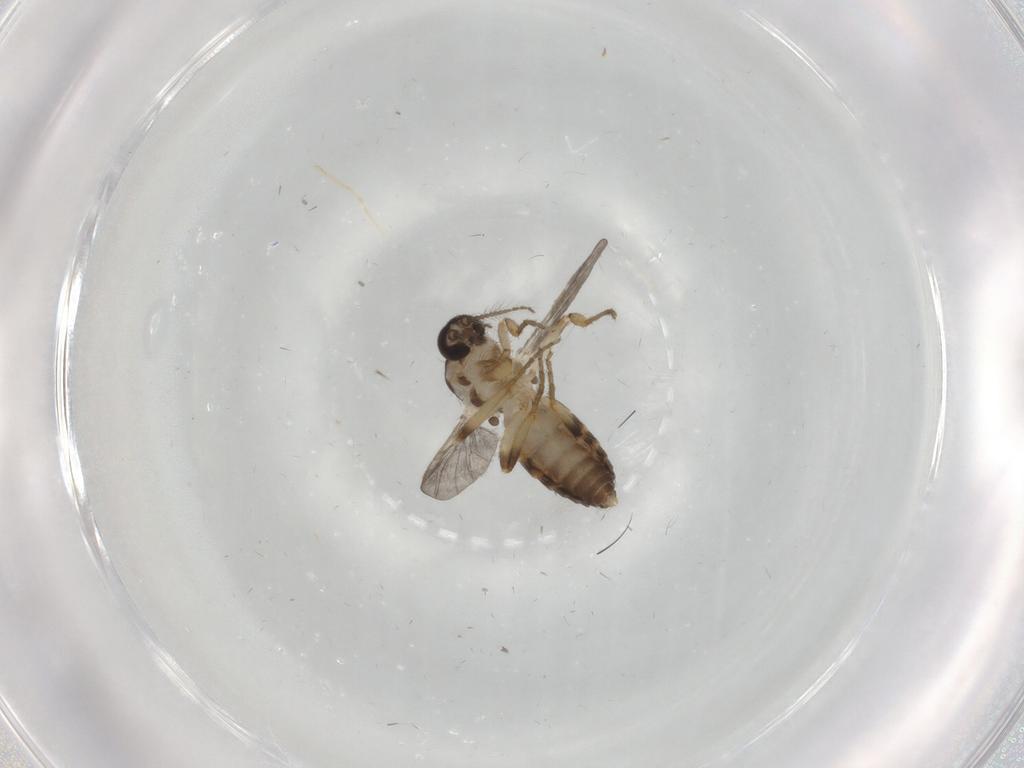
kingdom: Animalia
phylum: Arthropoda
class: Insecta
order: Diptera
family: Ceratopogonidae
